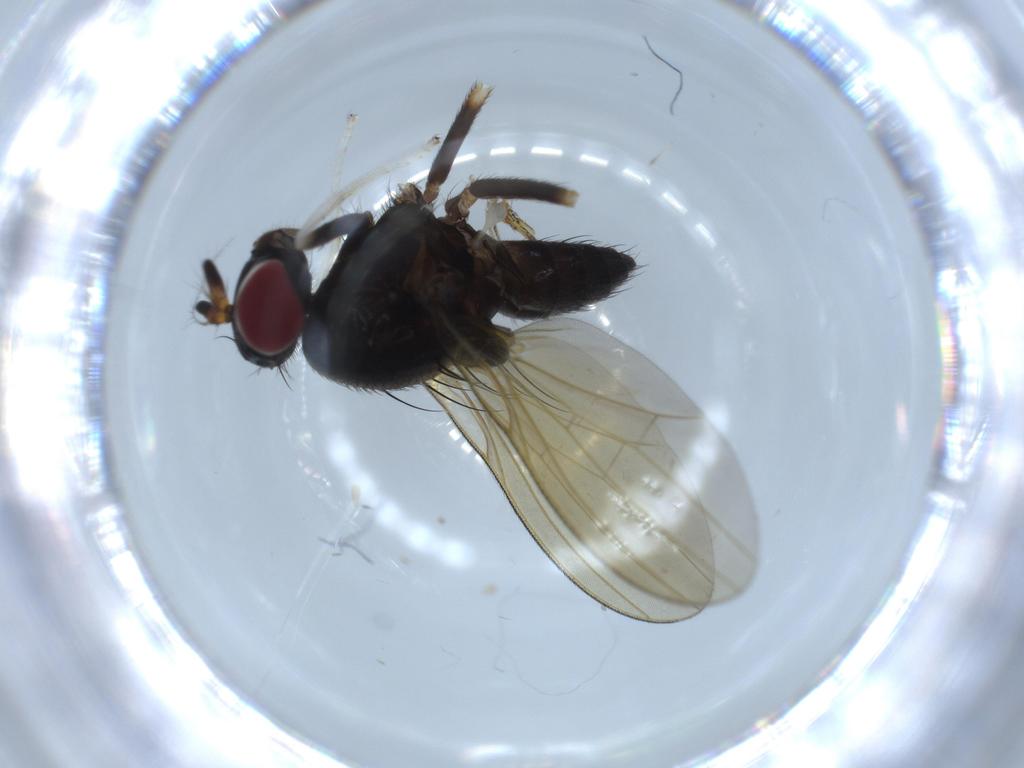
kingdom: Animalia
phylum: Arthropoda
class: Insecta
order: Diptera
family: Lauxaniidae
